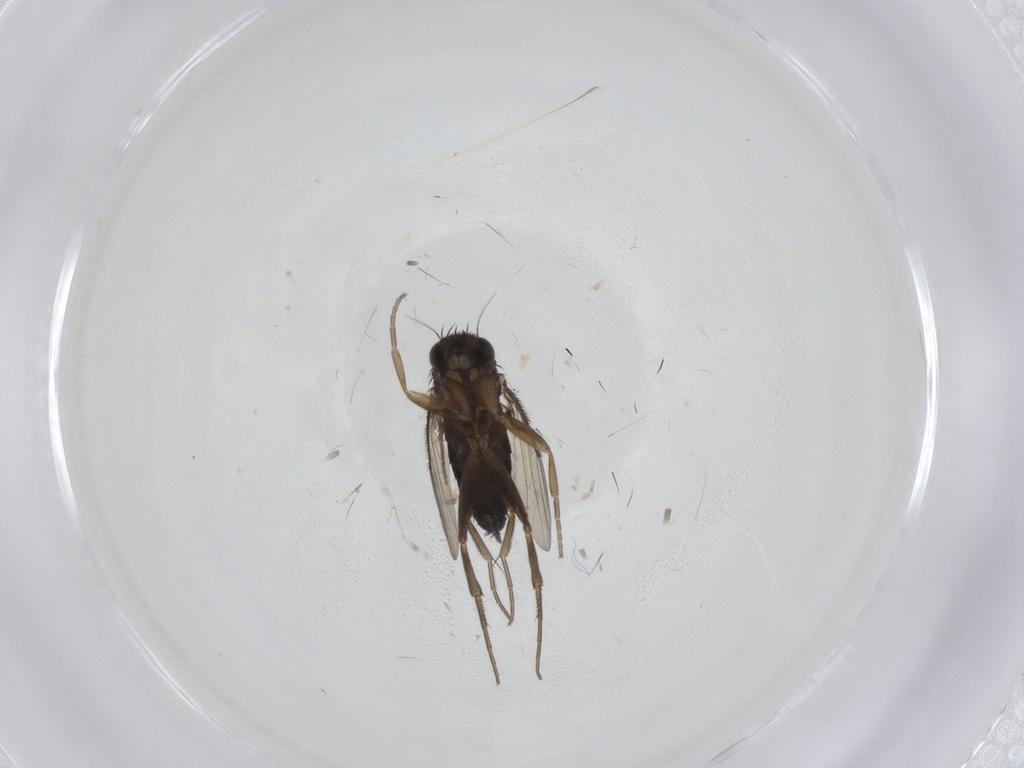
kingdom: Animalia
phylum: Arthropoda
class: Insecta
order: Diptera
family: Phoridae
